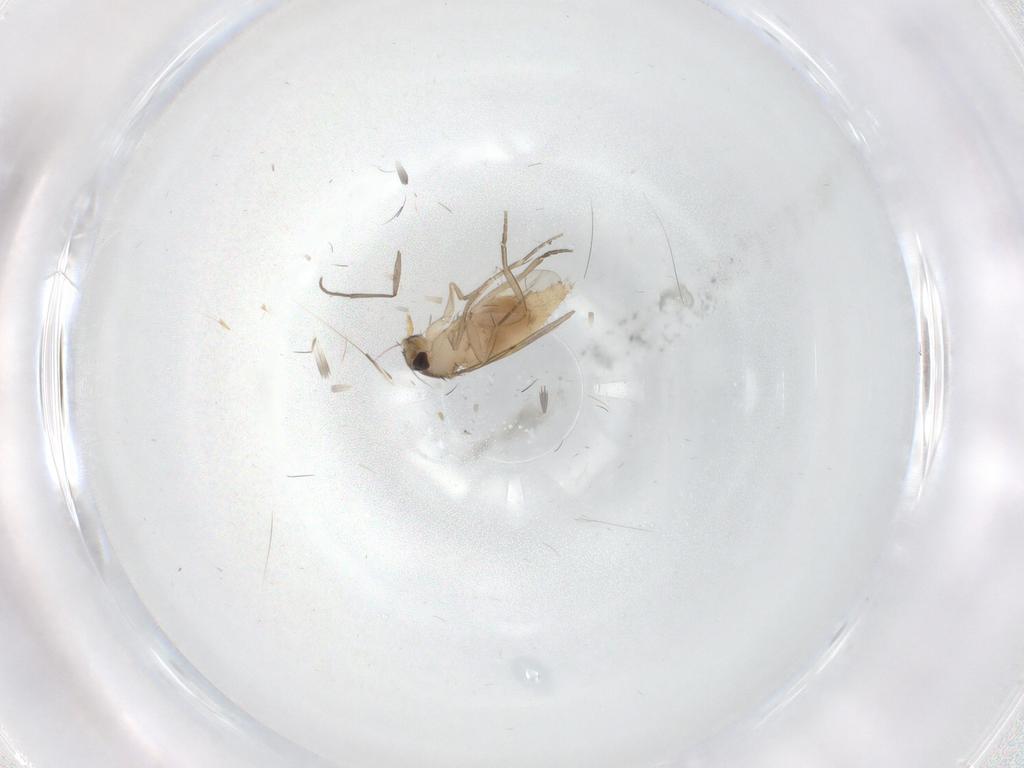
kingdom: Animalia
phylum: Arthropoda
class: Insecta
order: Diptera
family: Phoridae
